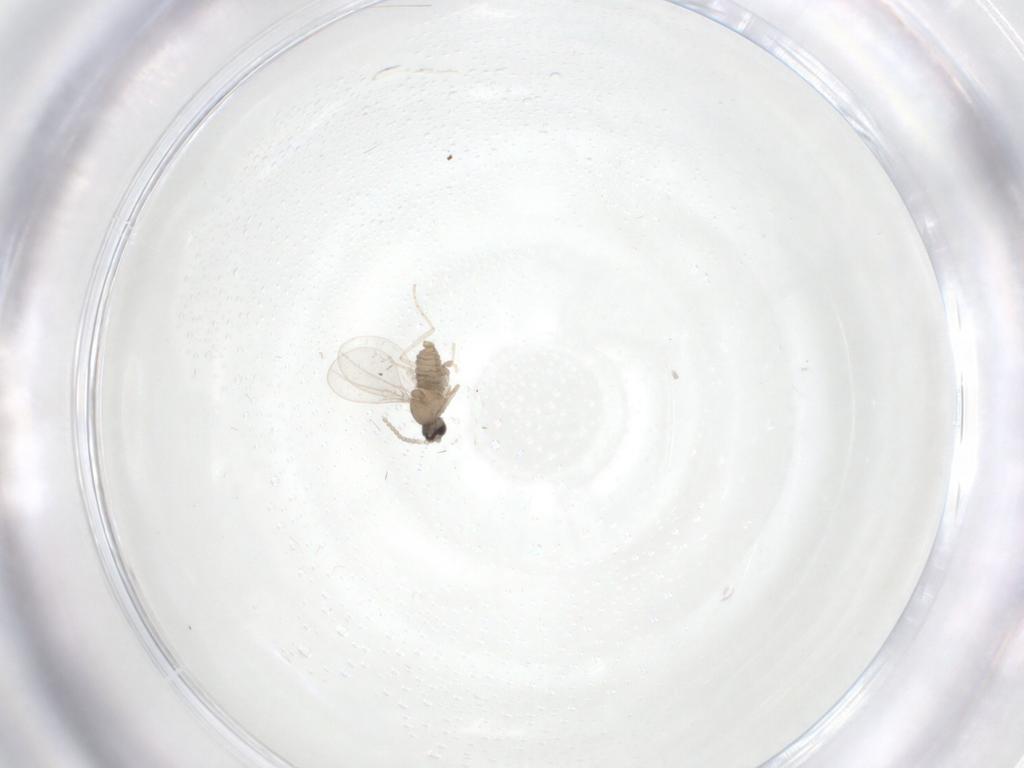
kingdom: Animalia
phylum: Arthropoda
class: Insecta
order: Diptera
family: Cecidomyiidae
